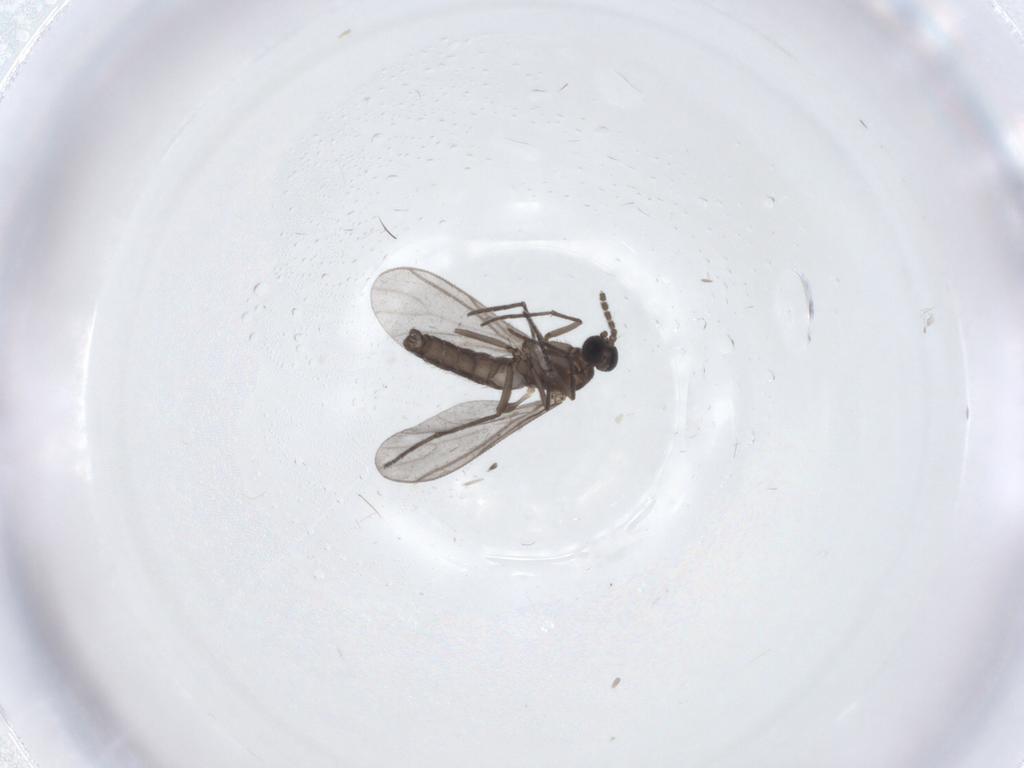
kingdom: Animalia
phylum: Arthropoda
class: Insecta
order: Diptera
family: Sciaridae
